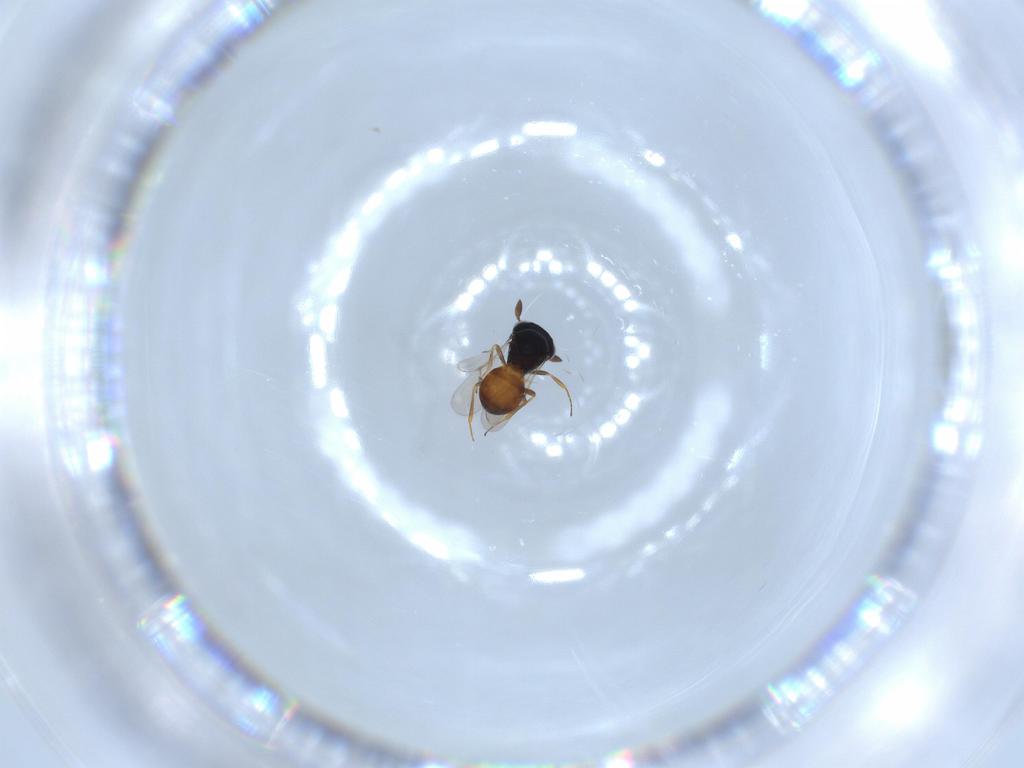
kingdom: Animalia
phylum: Arthropoda
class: Insecta
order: Hymenoptera
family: Scelionidae
